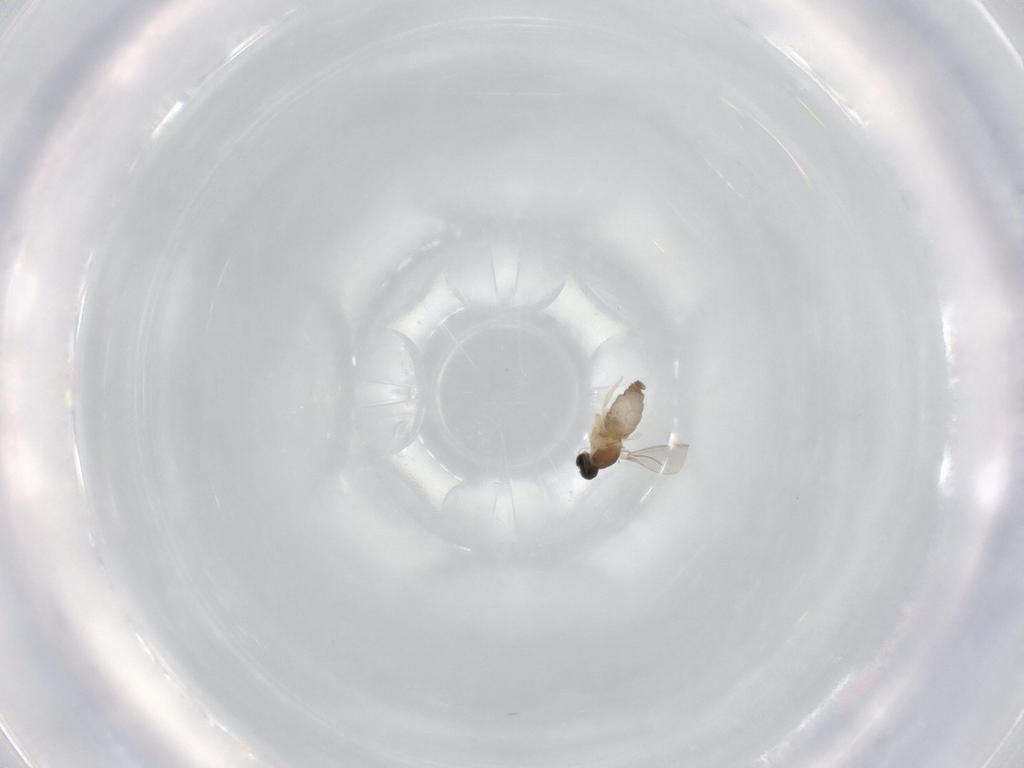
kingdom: Animalia
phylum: Arthropoda
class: Insecta
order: Diptera
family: Cecidomyiidae
